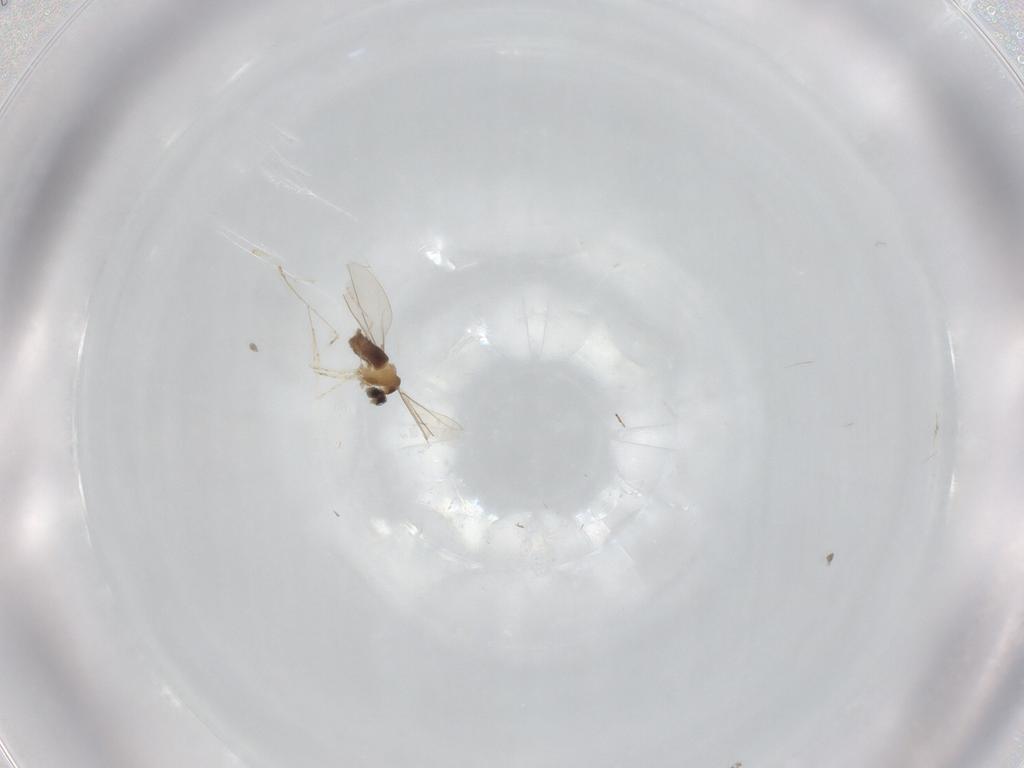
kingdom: Animalia
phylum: Arthropoda
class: Insecta
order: Diptera
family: Cecidomyiidae
